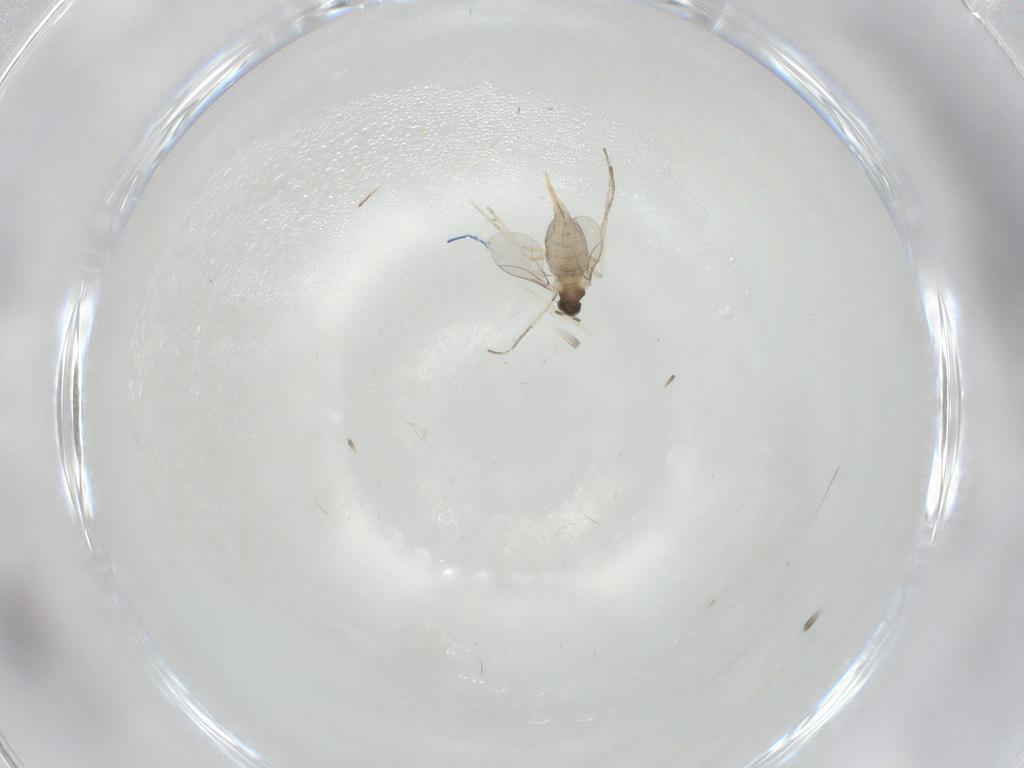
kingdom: Animalia
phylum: Arthropoda
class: Insecta
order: Diptera
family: Cecidomyiidae
